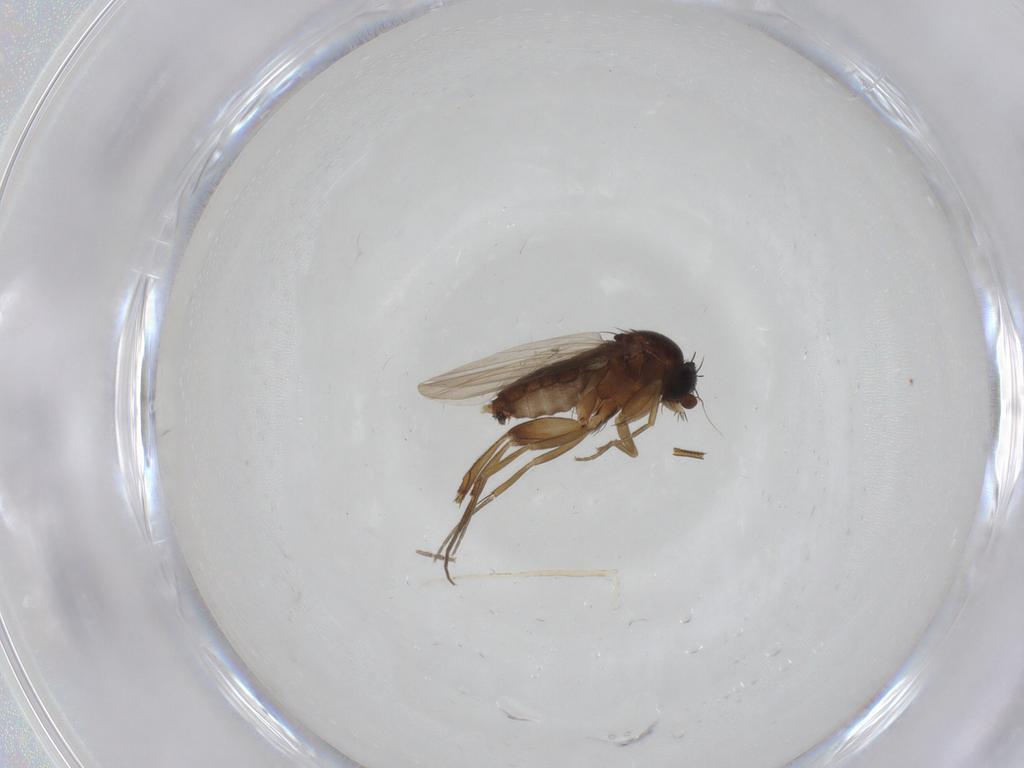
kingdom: Animalia
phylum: Arthropoda
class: Insecta
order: Diptera
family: Phoridae
